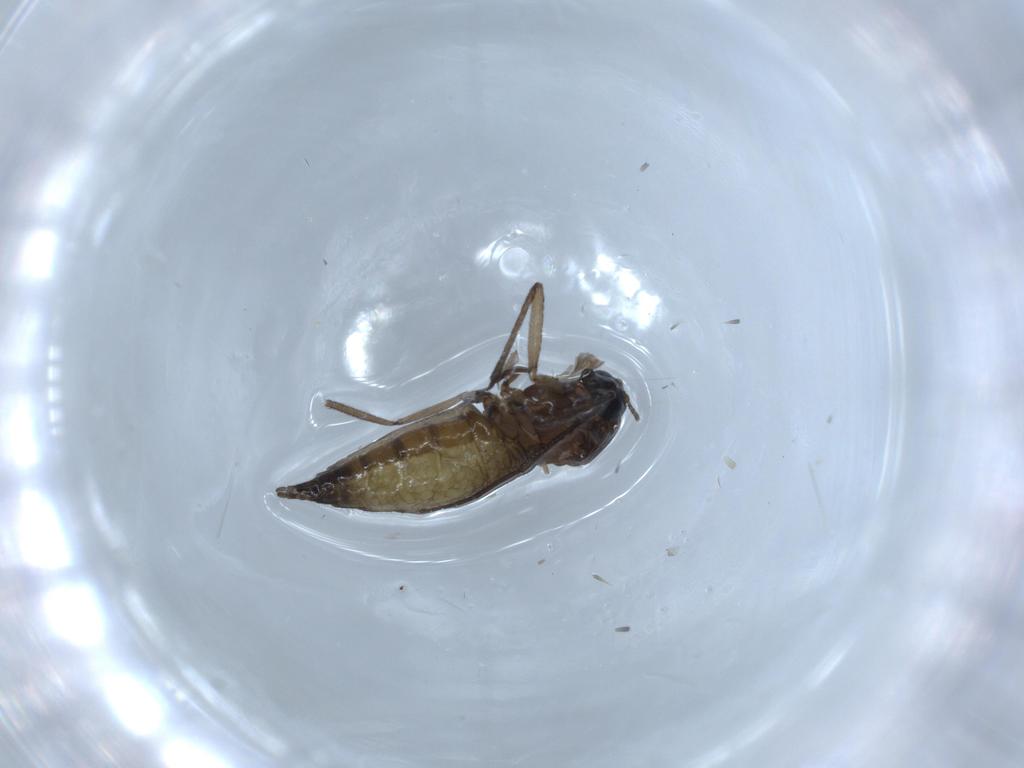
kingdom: Animalia
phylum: Arthropoda
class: Insecta
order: Diptera
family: Sciaridae
